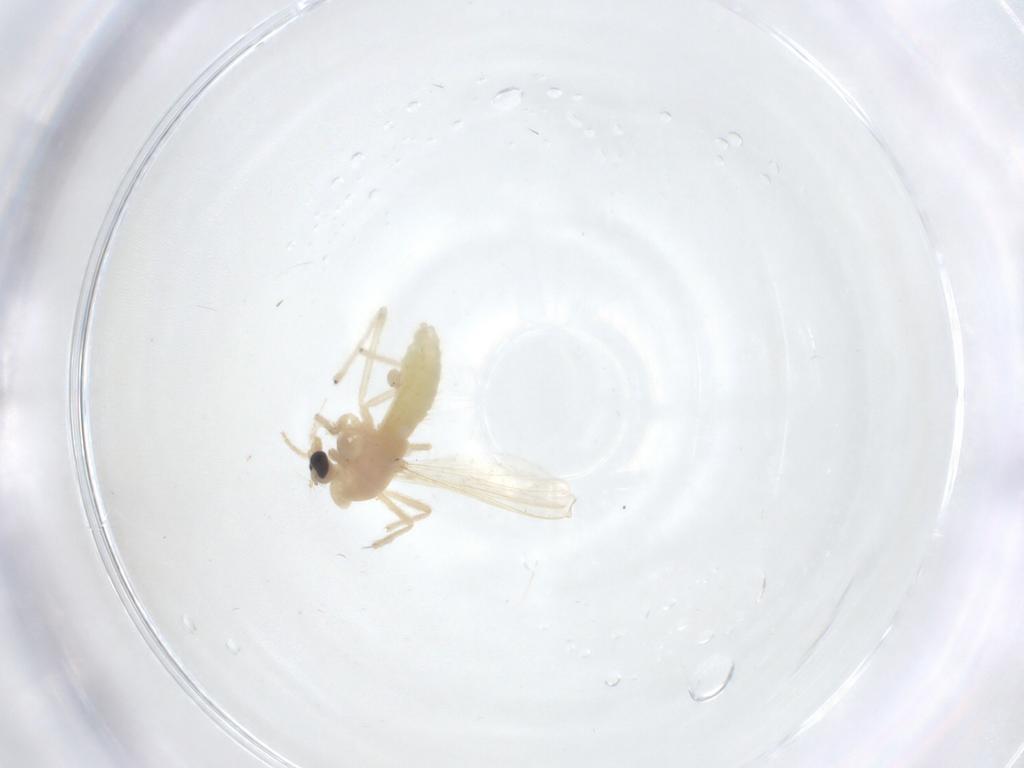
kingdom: Animalia
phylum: Arthropoda
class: Insecta
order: Diptera
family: Chironomidae
